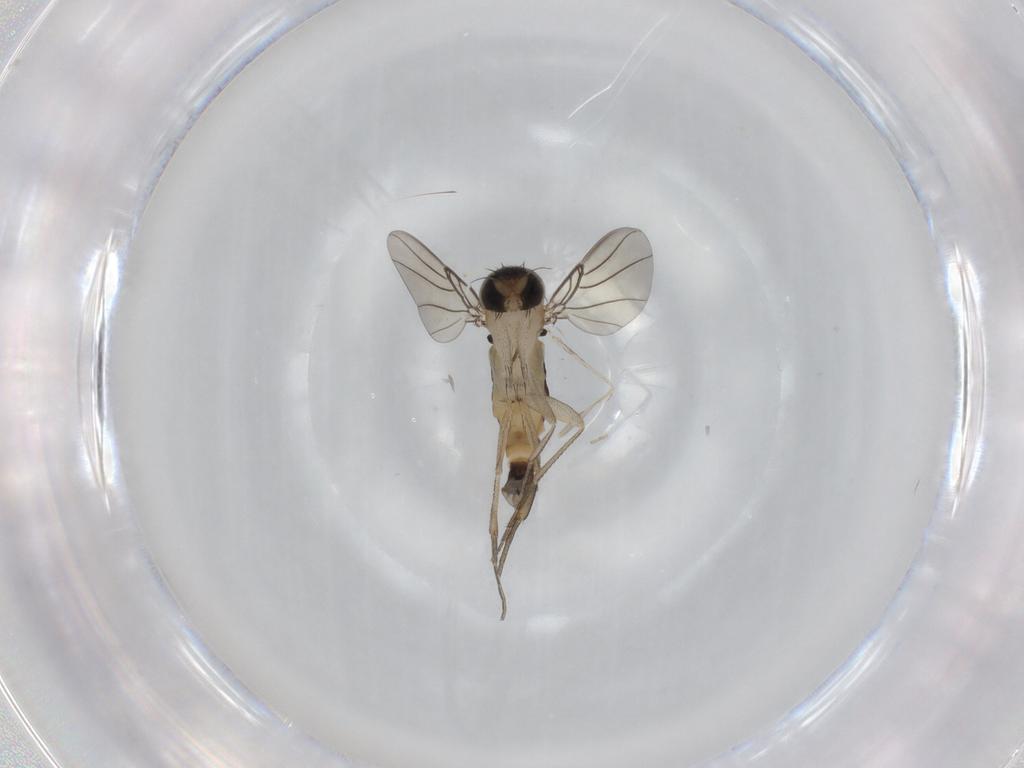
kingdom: Animalia
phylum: Arthropoda
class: Insecta
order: Diptera
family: Phoridae
